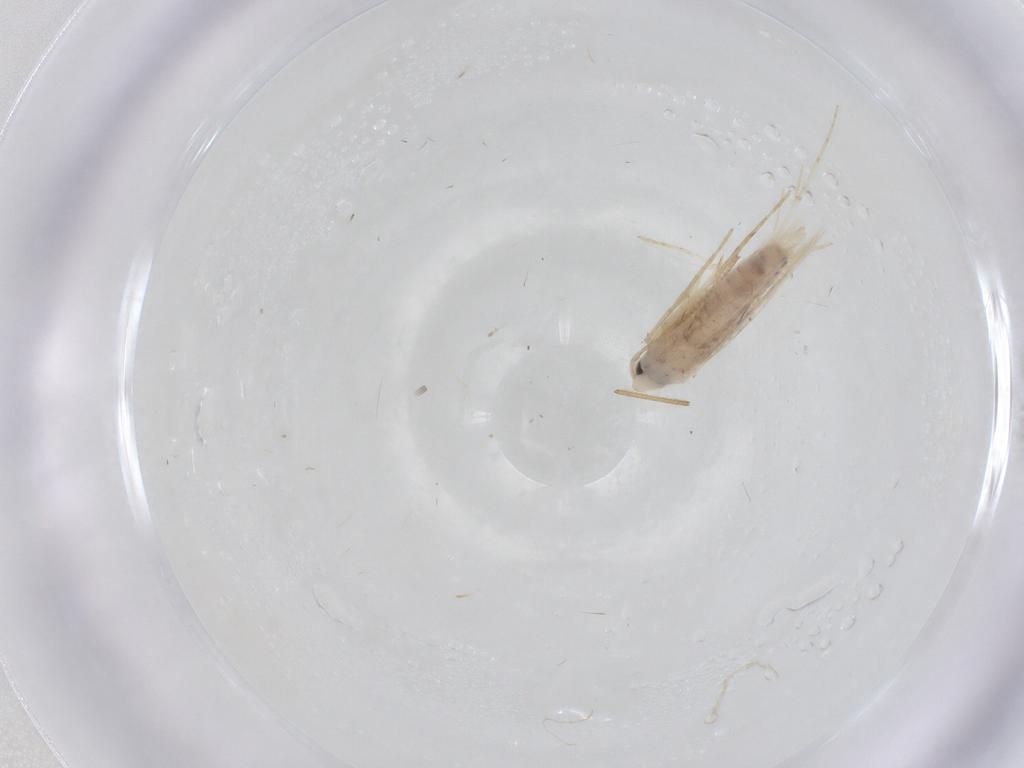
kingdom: Animalia
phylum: Arthropoda
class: Insecta
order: Lepidoptera
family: Tineidae
